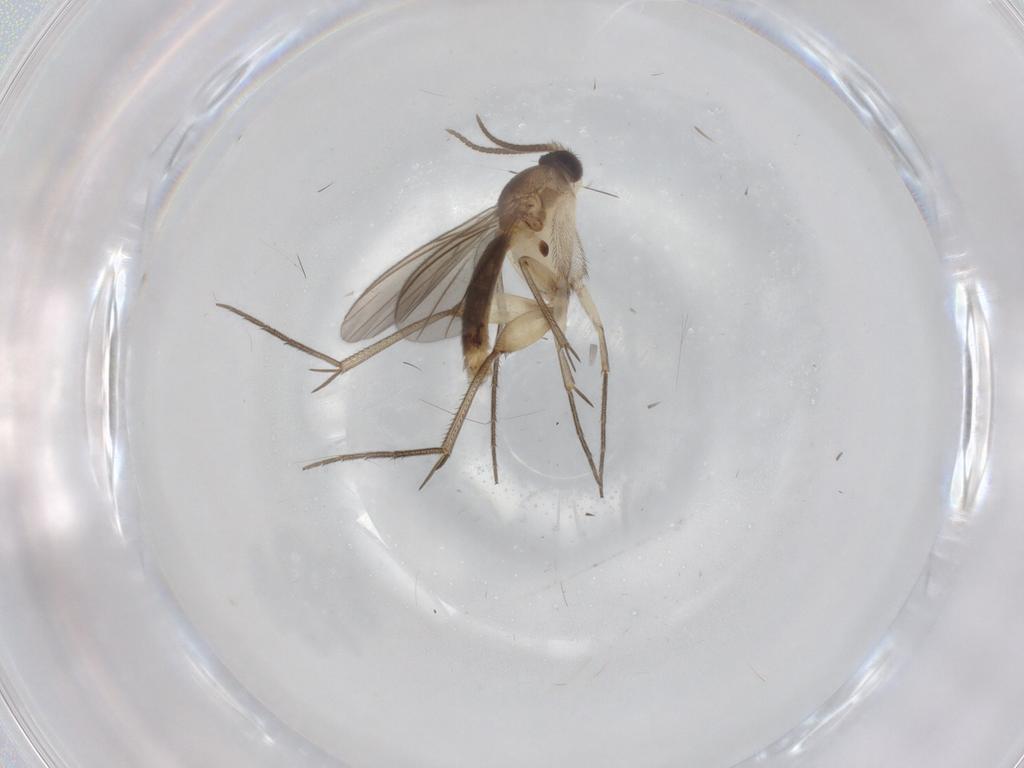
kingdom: Animalia
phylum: Arthropoda
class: Insecta
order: Diptera
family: Mycetophilidae
